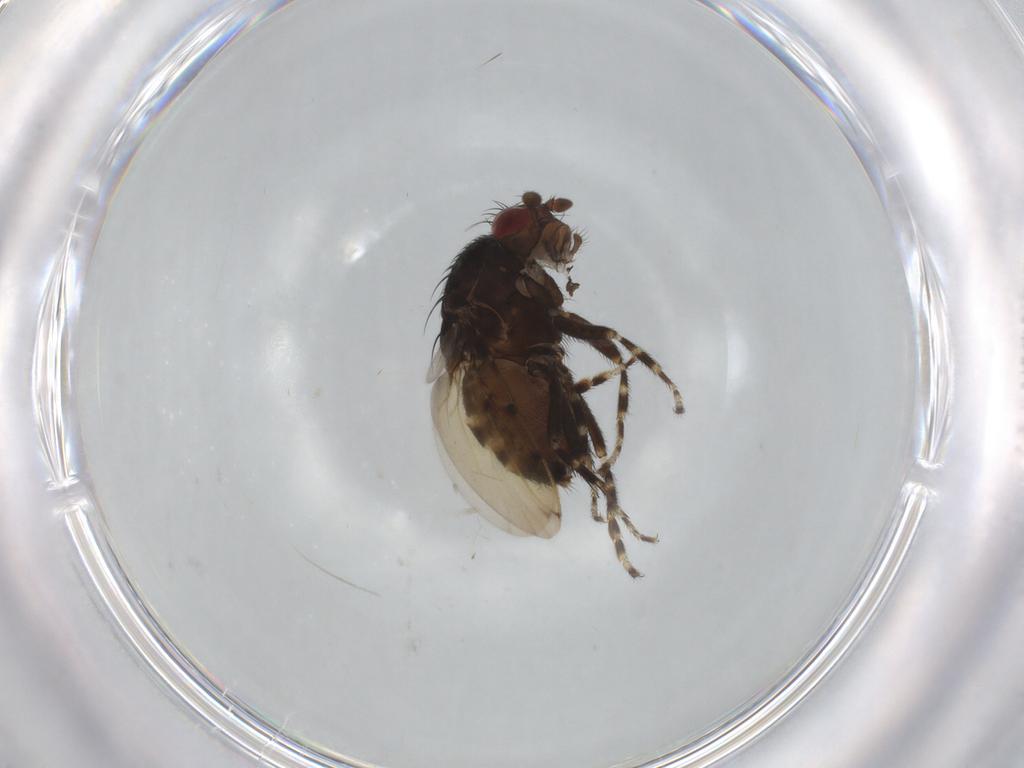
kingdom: Animalia
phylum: Arthropoda
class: Insecta
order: Diptera
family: Sphaeroceridae
